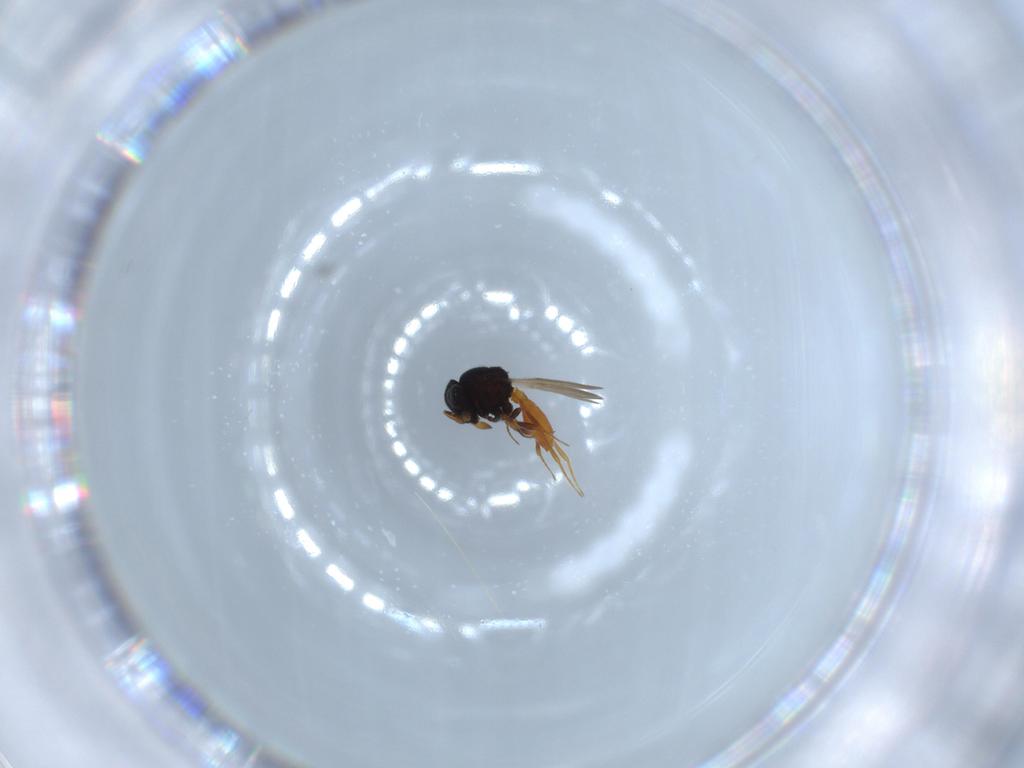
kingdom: Animalia
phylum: Arthropoda
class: Insecta
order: Hymenoptera
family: Scelionidae
